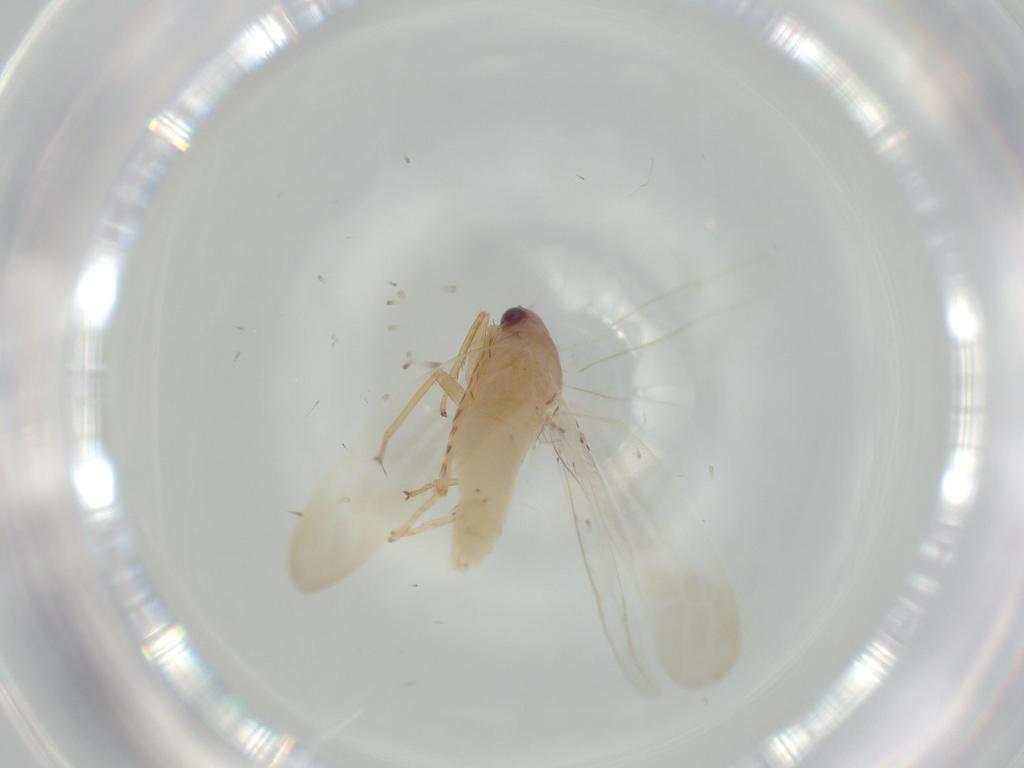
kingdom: Animalia
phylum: Arthropoda
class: Insecta
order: Hemiptera
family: Cicadellidae
